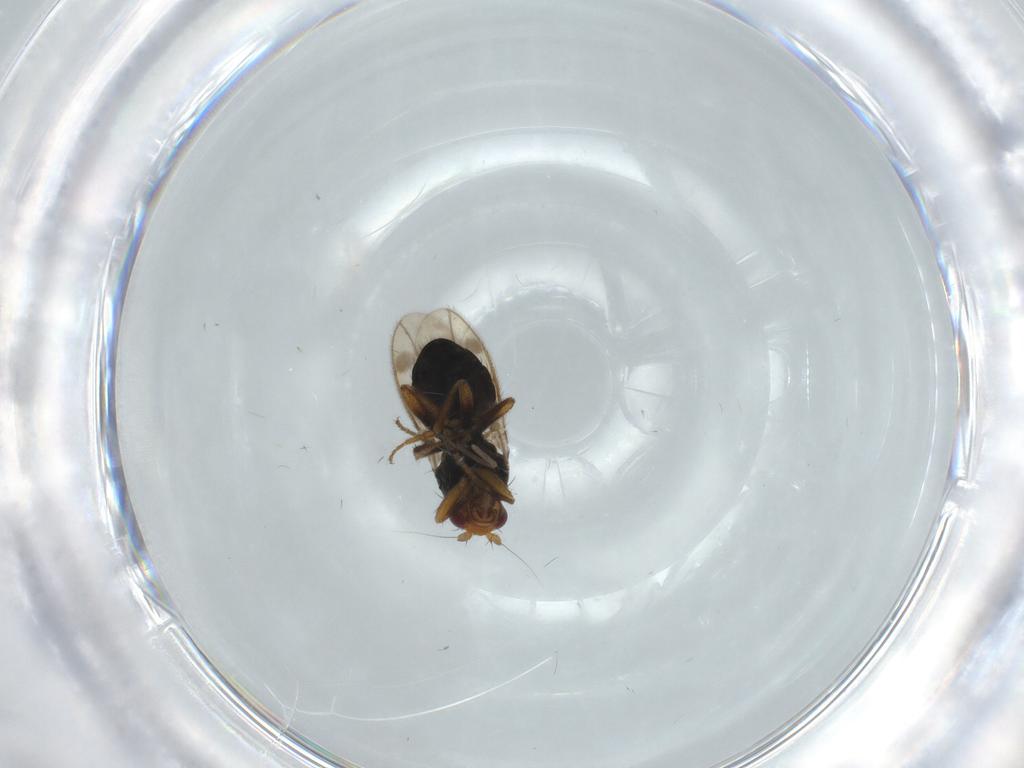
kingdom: Animalia
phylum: Arthropoda
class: Insecta
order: Diptera
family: Sphaeroceridae
